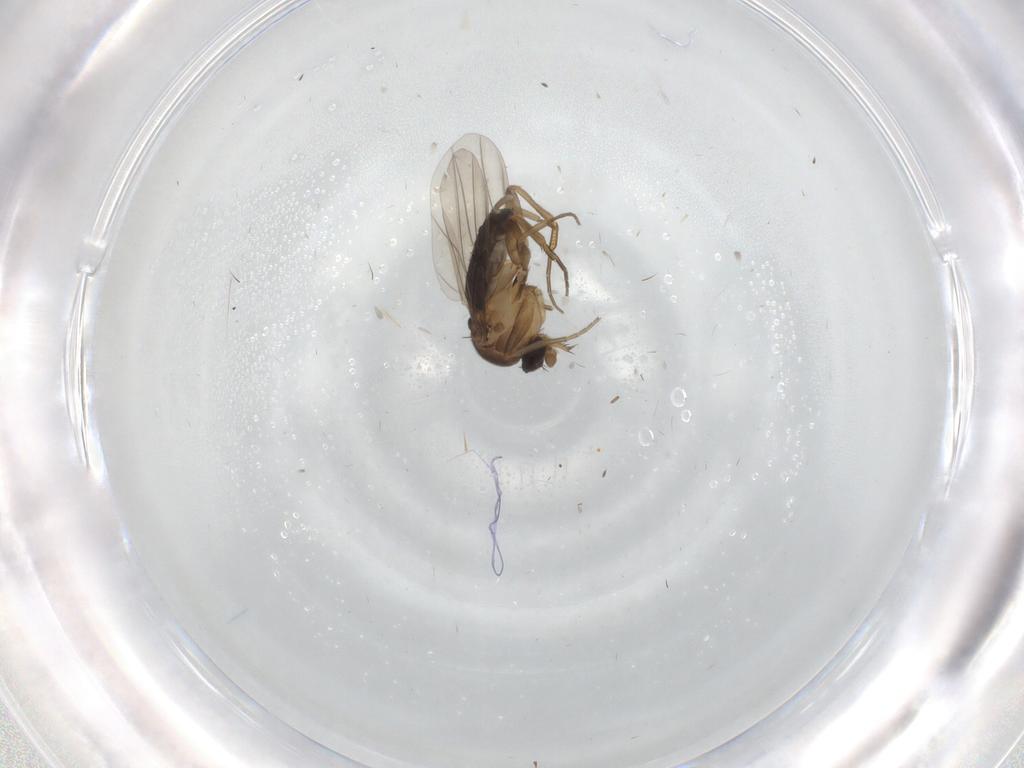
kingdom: Animalia
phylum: Arthropoda
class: Insecta
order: Diptera
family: Phoridae
